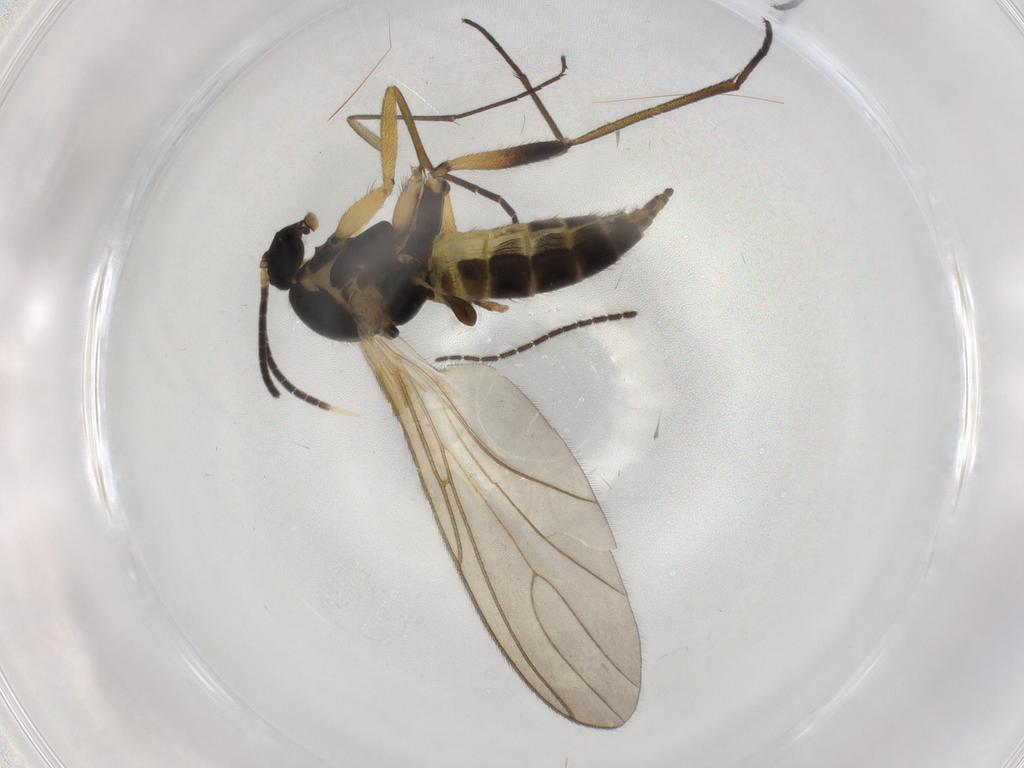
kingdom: Animalia
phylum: Arthropoda
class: Insecta
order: Diptera
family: Sciaridae
